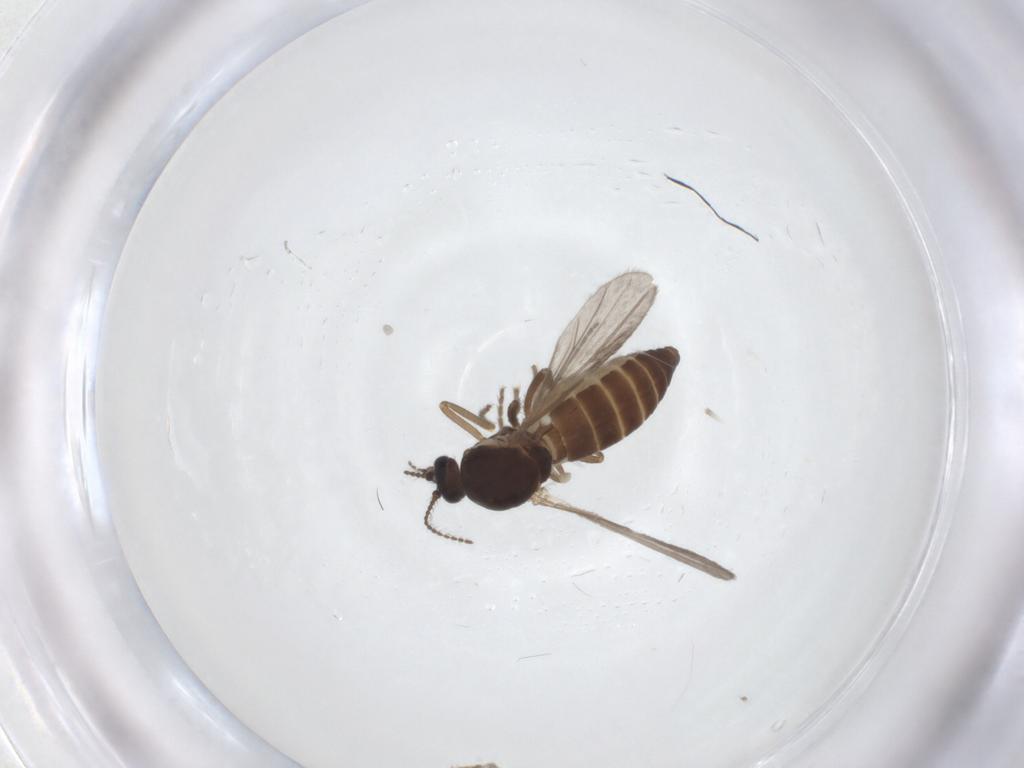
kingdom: Animalia
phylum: Arthropoda
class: Insecta
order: Diptera
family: Ceratopogonidae
